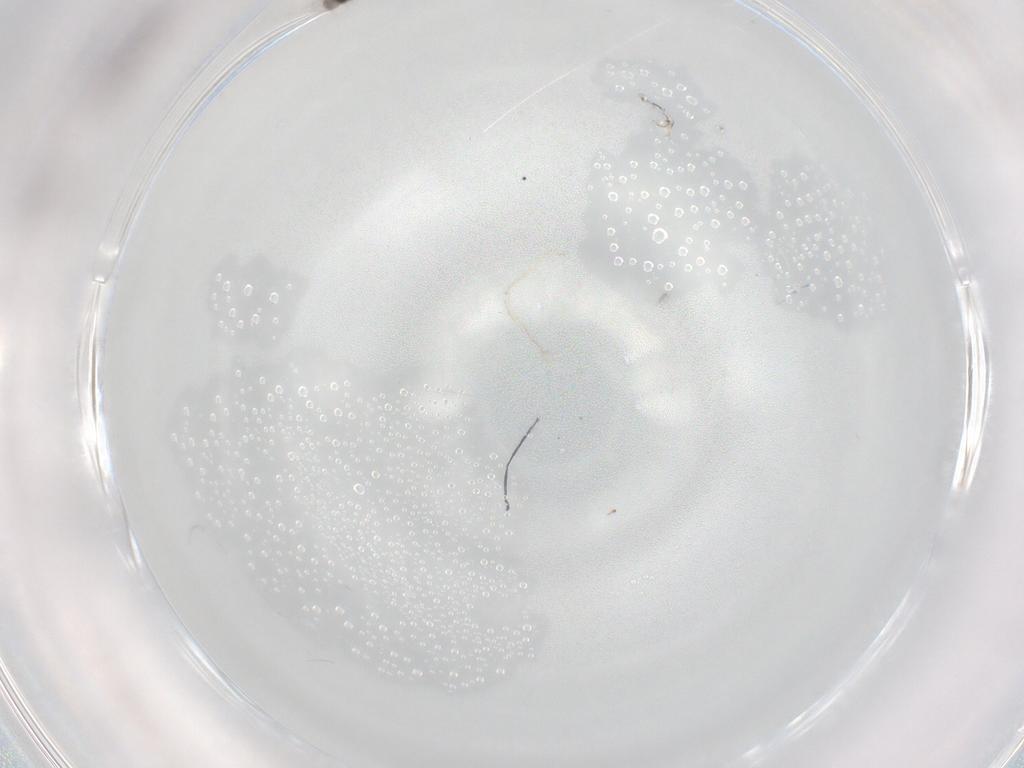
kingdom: Animalia
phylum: Arthropoda
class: Insecta
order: Diptera
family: Cecidomyiidae
